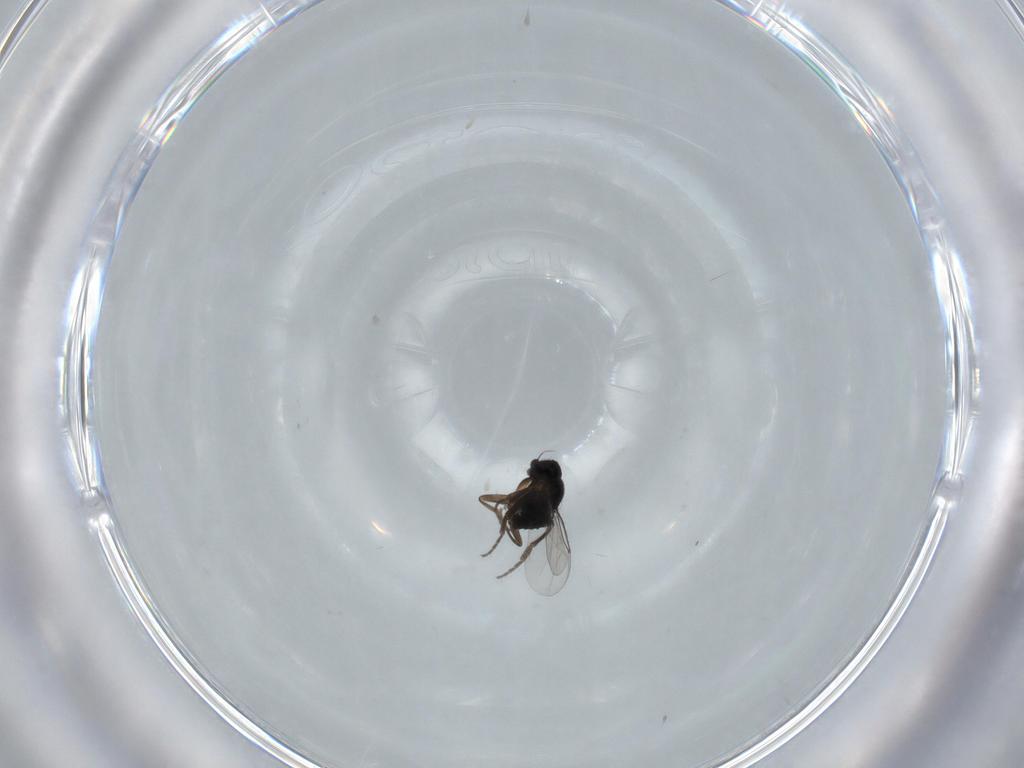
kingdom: Animalia
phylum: Arthropoda
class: Insecta
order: Diptera
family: Phoridae
